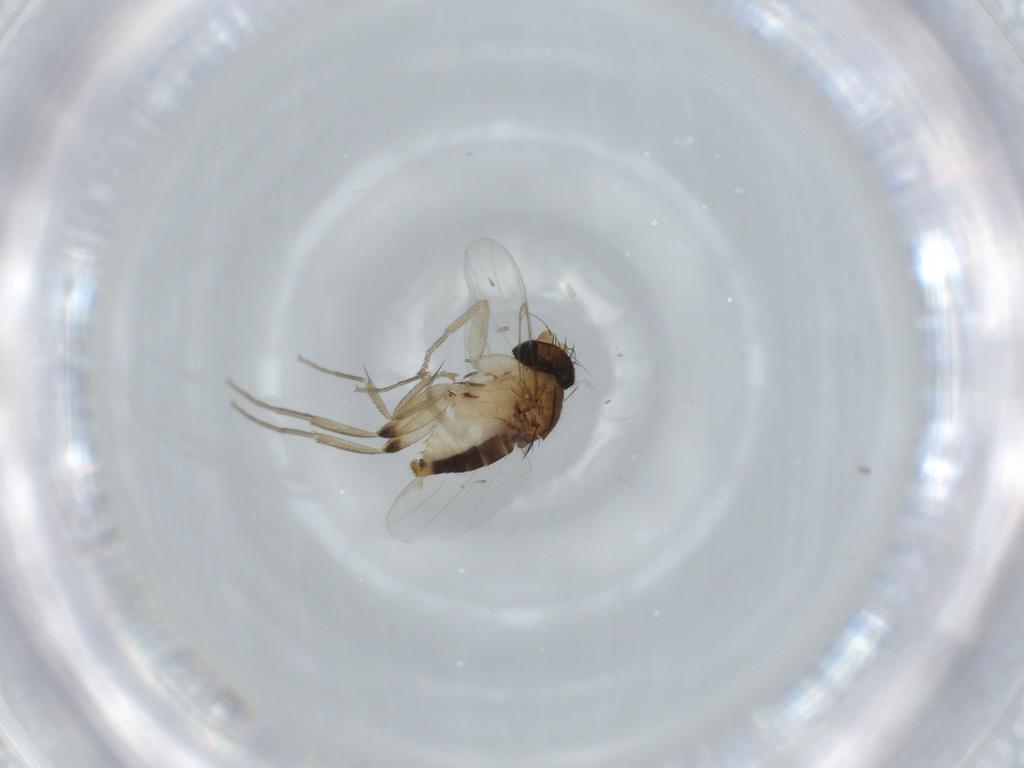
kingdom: Animalia
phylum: Arthropoda
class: Insecta
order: Diptera
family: Phoridae
